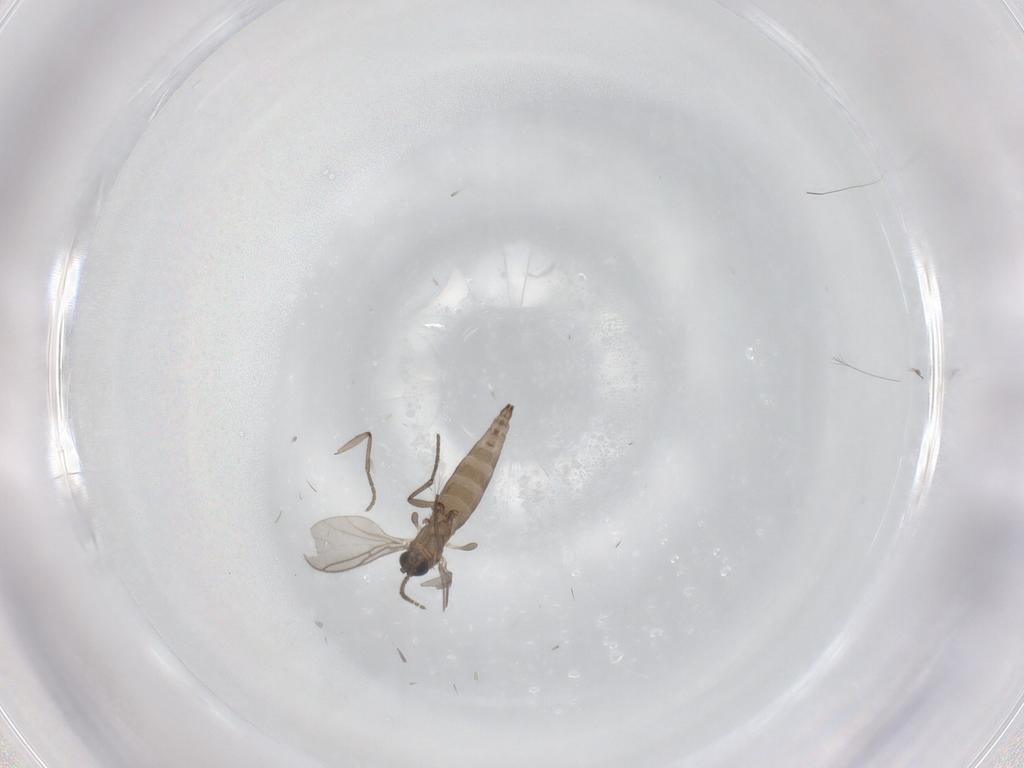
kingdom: Animalia
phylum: Arthropoda
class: Insecta
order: Diptera
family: Sciaridae
